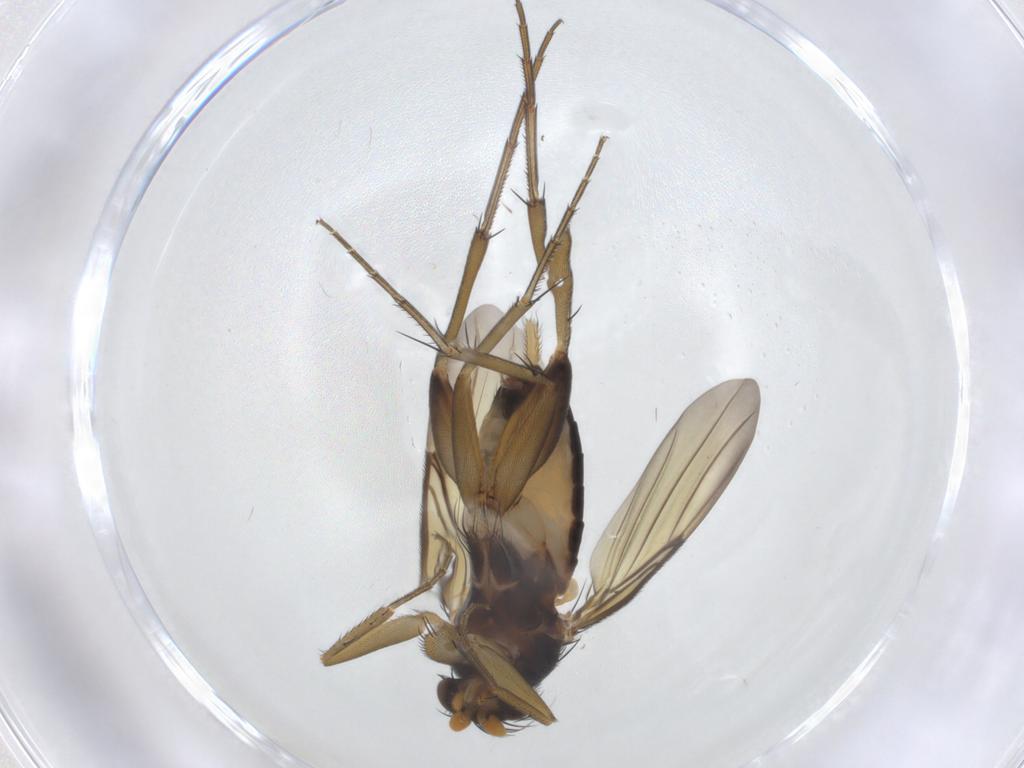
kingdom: Animalia
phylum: Arthropoda
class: Insecta
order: Diptera
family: Phoridae
